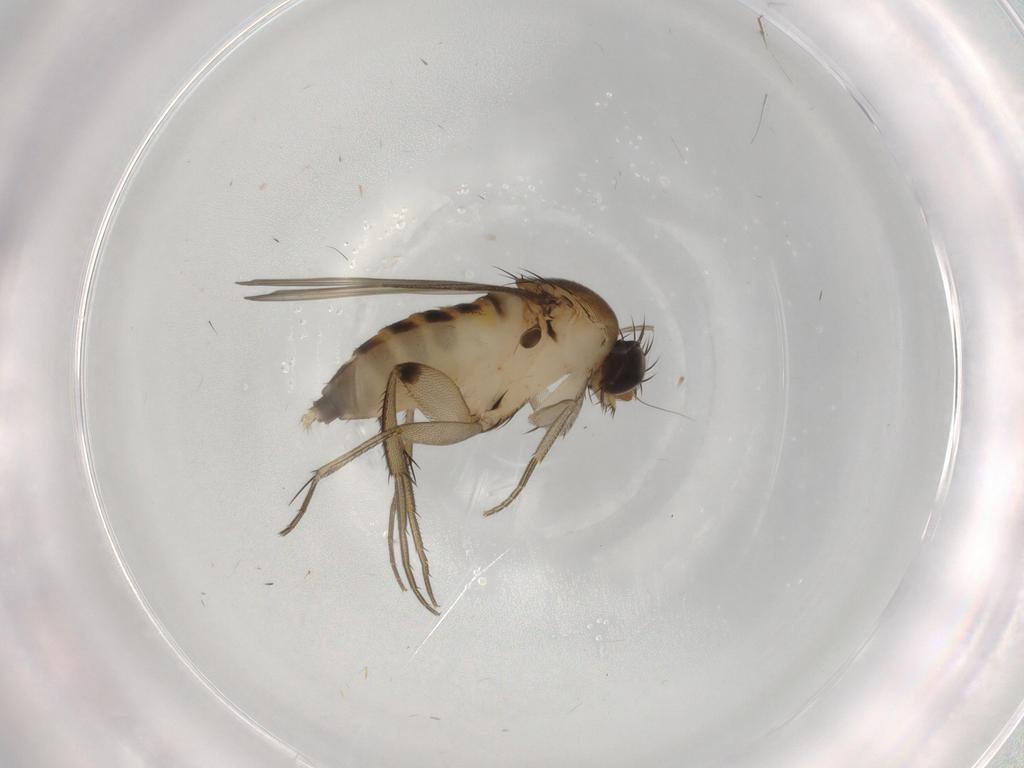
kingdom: Animalia
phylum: Arthropoda
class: Insecta
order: Diptera
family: Phoridae
